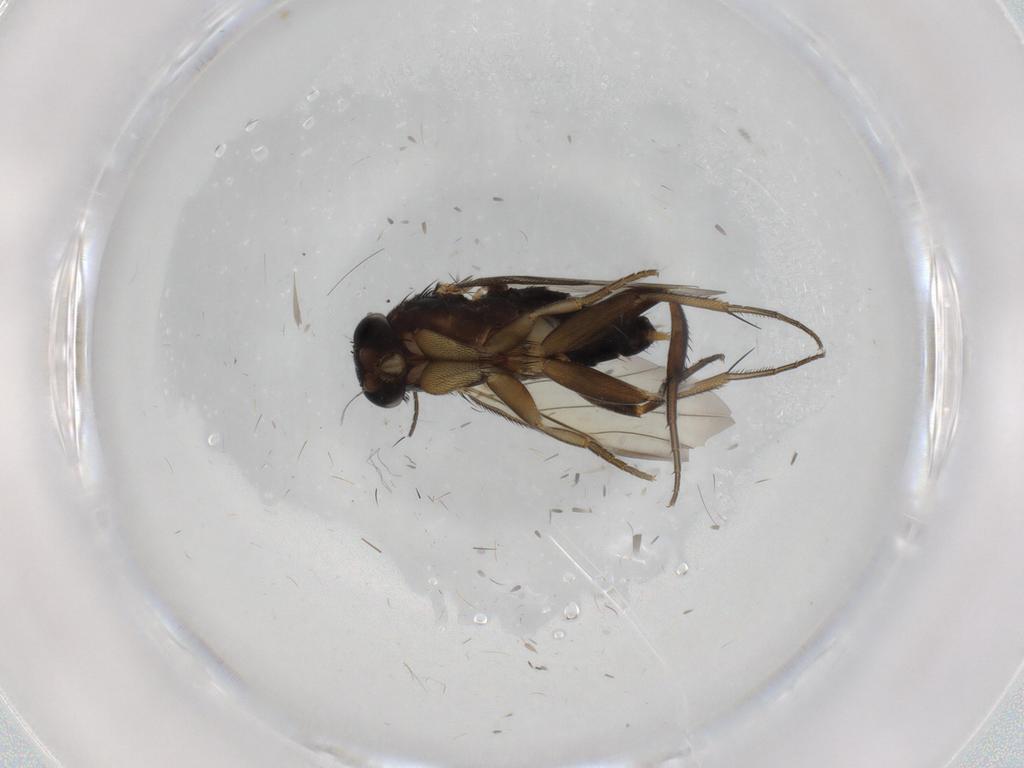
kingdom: Animalia
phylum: Arthropoda
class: Insecta
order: Diptera
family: Phoridae
